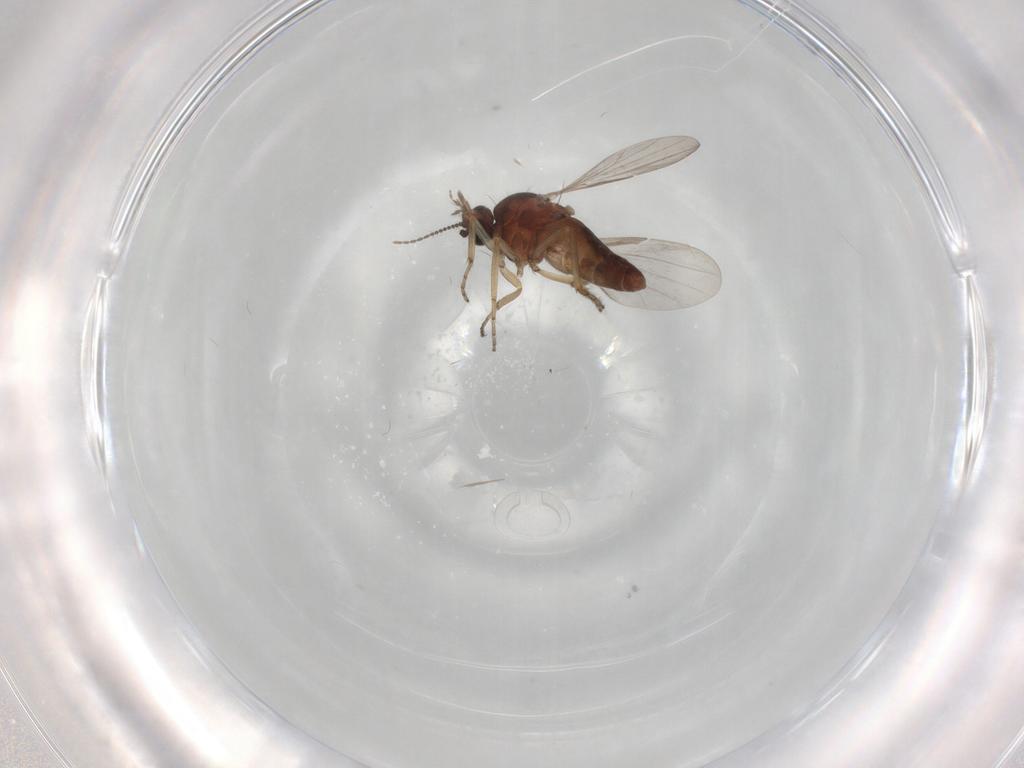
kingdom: Animalia
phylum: Arthropoda
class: Insecta
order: Diptera
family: Ceratopogonidae
